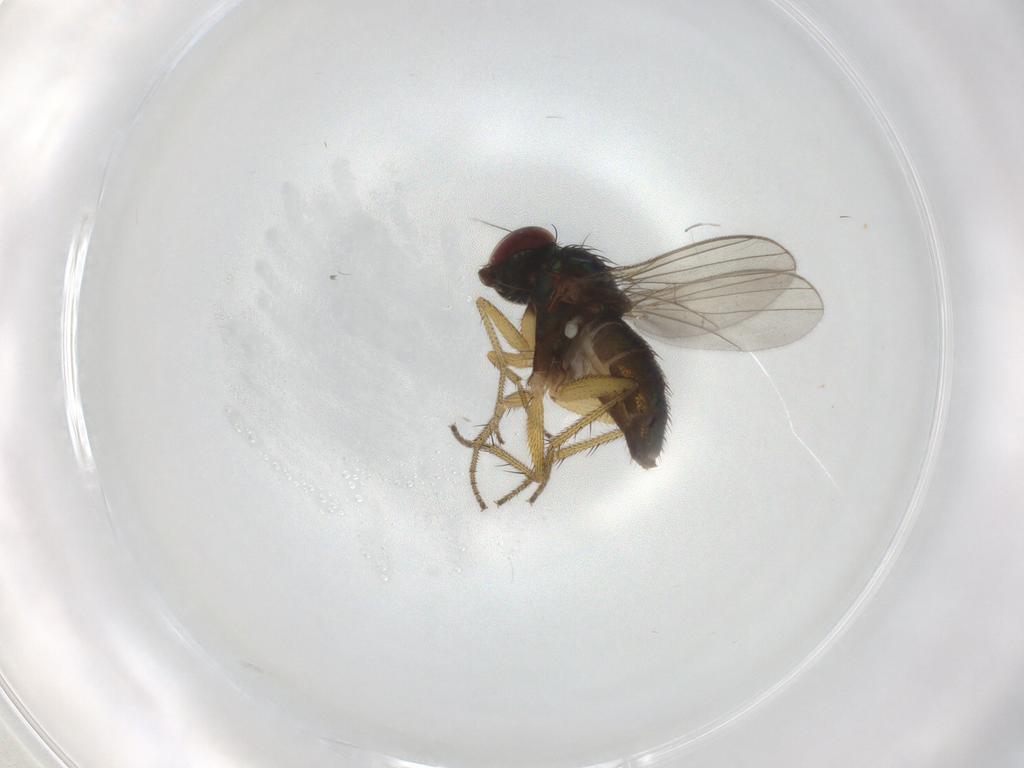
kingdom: Animalia
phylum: Arthropoda
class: Insecta
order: Diptera
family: Dolichopodidae
